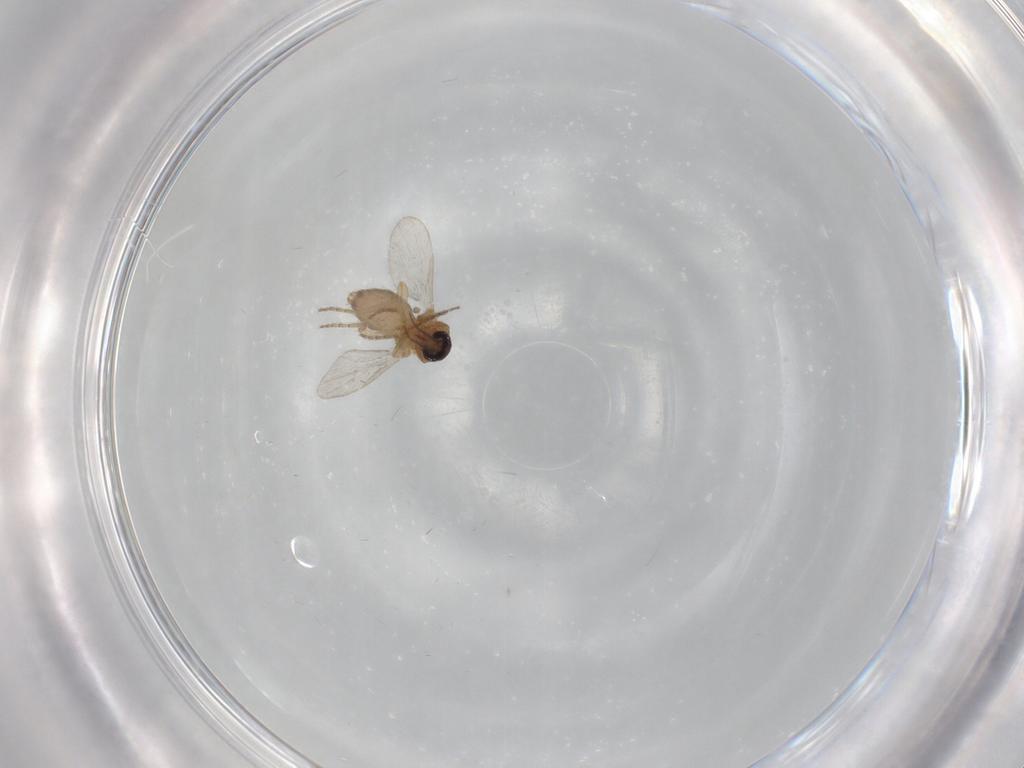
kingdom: Animalia
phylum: Arthropoda
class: Insecta
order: Diptera
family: Ceratopogonidae
